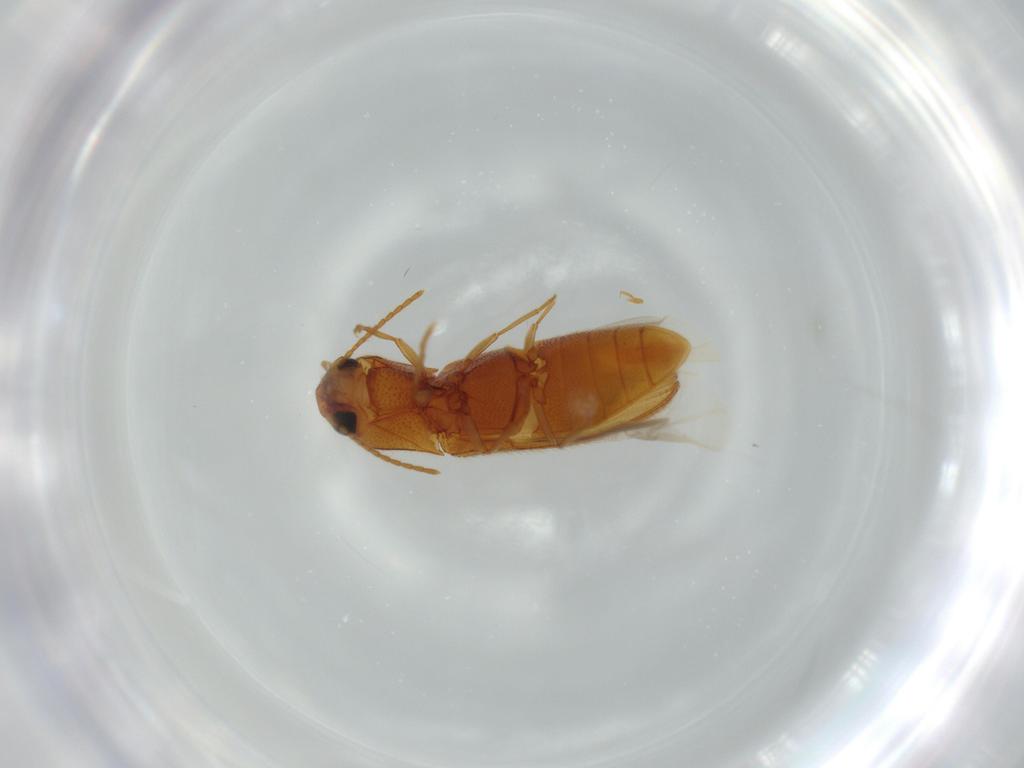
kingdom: Animalia
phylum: Arthropoda
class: Insecta
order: Coleoptera
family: Elateridae
